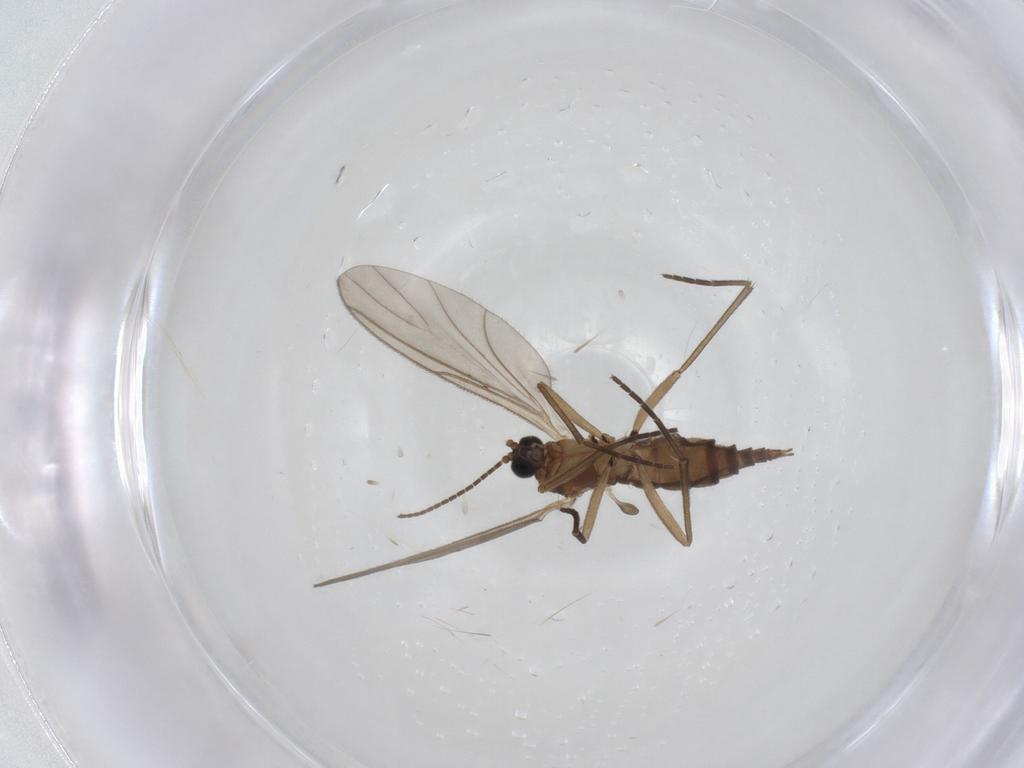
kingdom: Animalia
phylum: Arthropoda
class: Insecta
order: Diptera
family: Sciaridae
